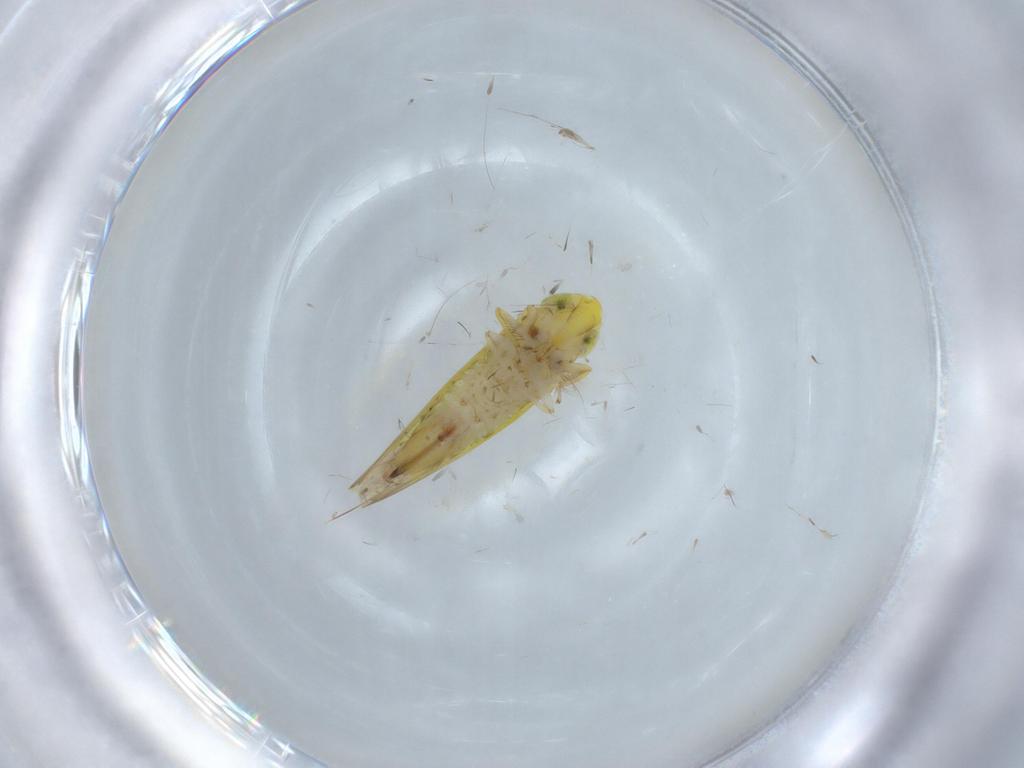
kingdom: Animalia
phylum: Arthropoda
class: Insecta
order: Hemiptera
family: Cicadellidae
